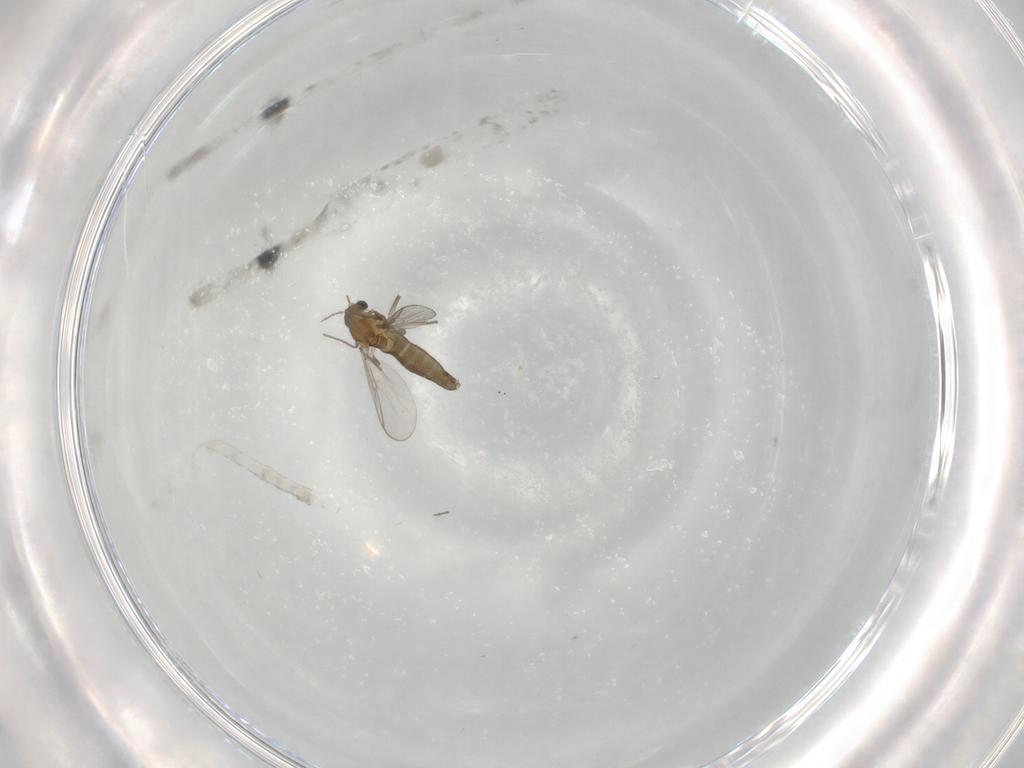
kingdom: Animalia
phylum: Arthropoda
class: Insecta
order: Diptera
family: Chironomidae
